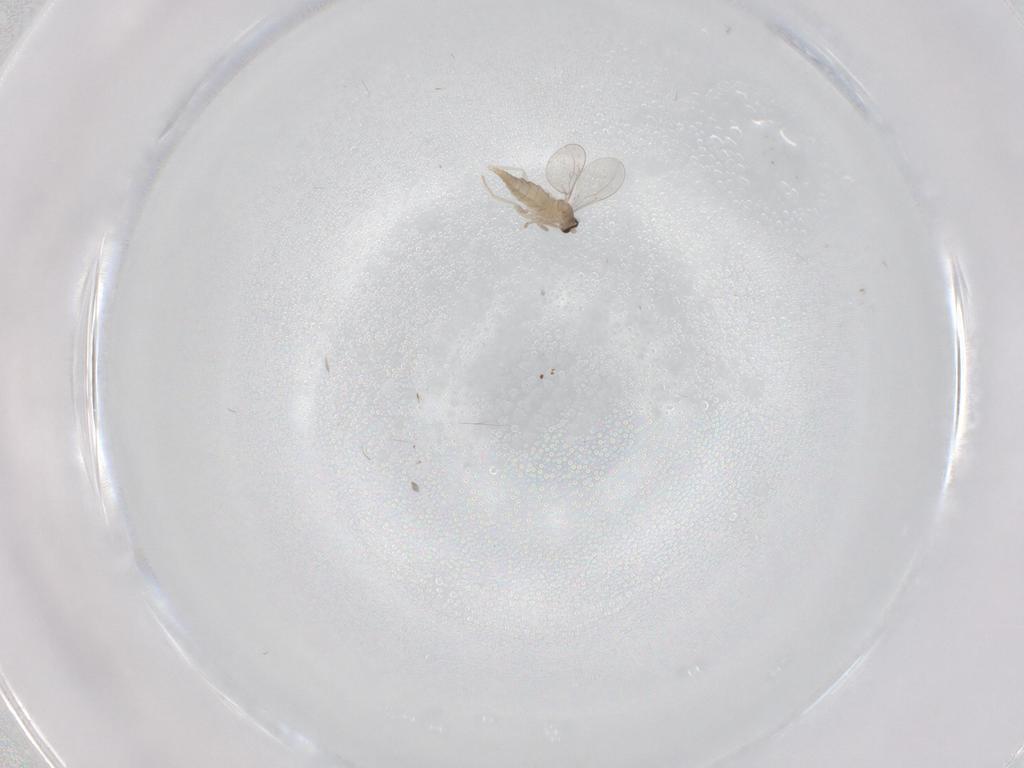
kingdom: Animalia
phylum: Arthropoda
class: Insecta
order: Diptera
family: Cecidomyiidae
